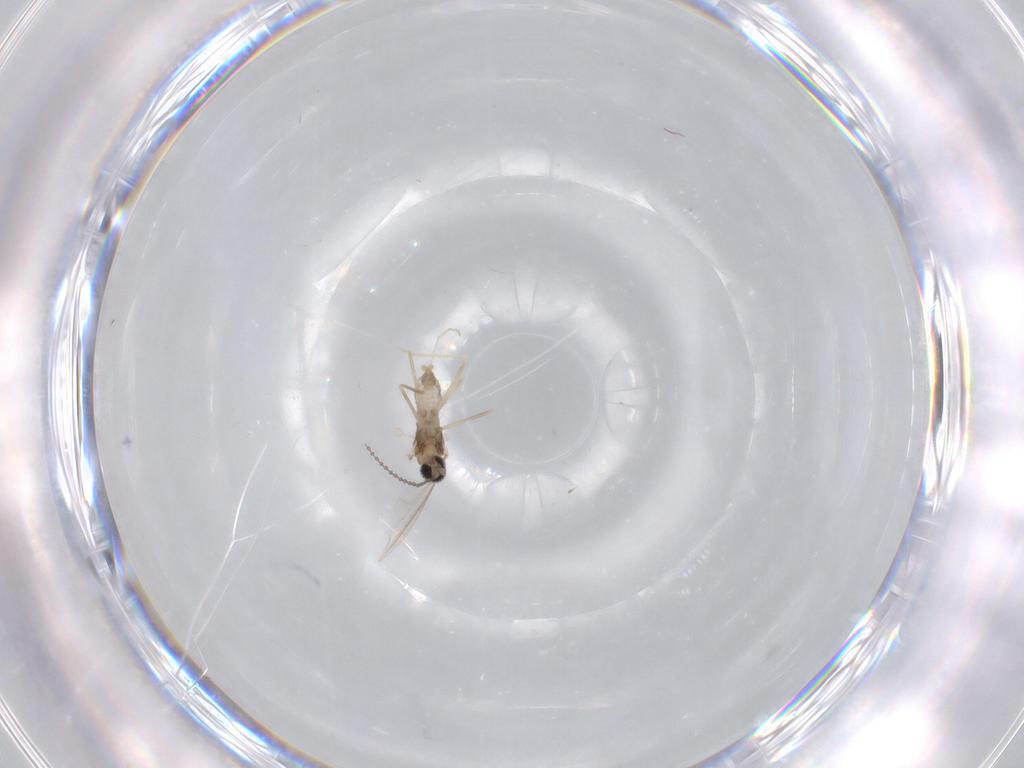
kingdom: Animalia
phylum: Arthropoda
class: Insecta
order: Diptera
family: Cecidomyiidae
